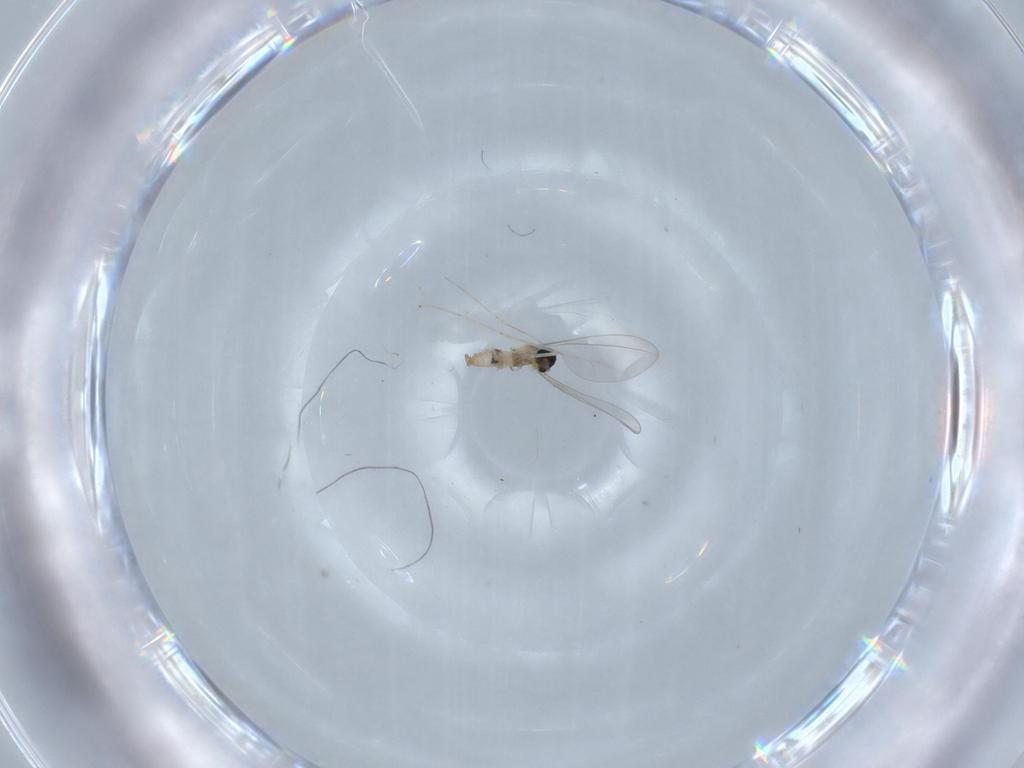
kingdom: Animalia
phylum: Arthropoda
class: Insecta
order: Diptera
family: Cecidomyiidae
